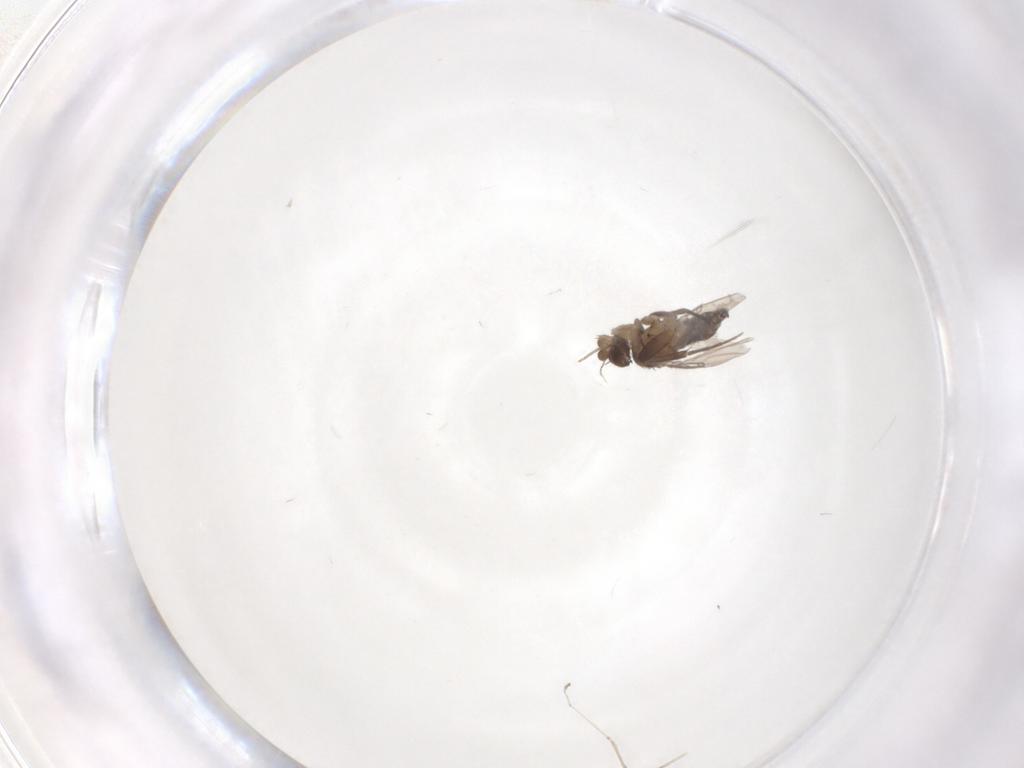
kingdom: Animalia
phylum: Arthropoda
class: Insecta
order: Diptera
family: Phoridae
